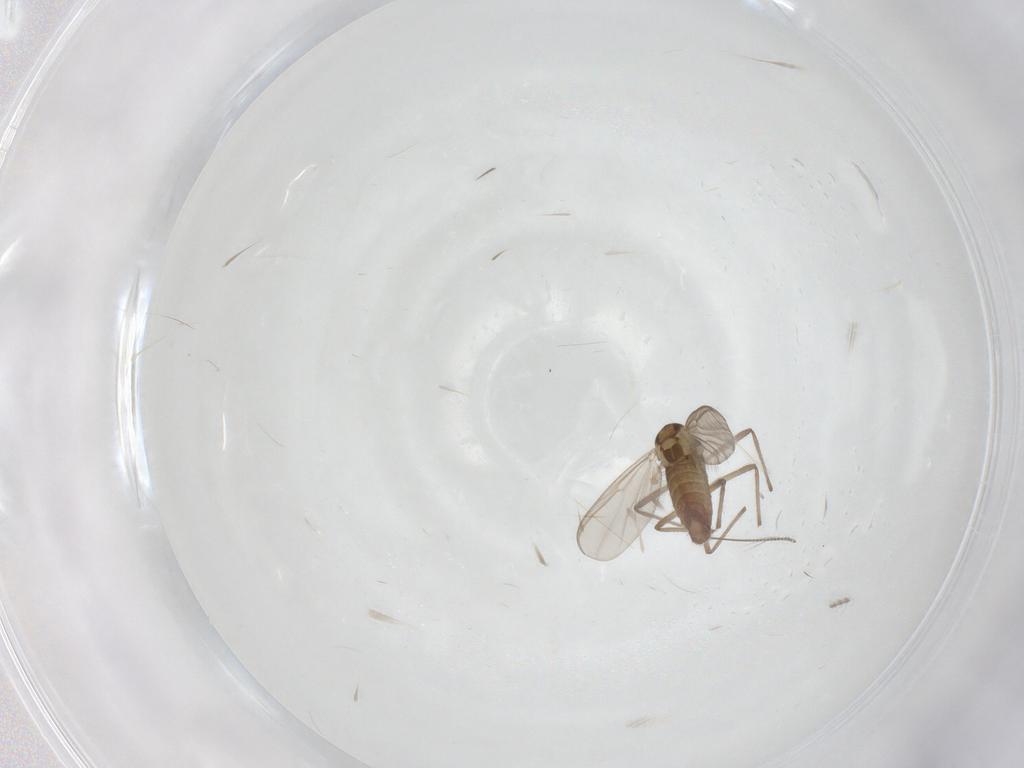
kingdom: Animalia
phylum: Arthropoda
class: Insecta
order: Diptera
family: Chironomidae
